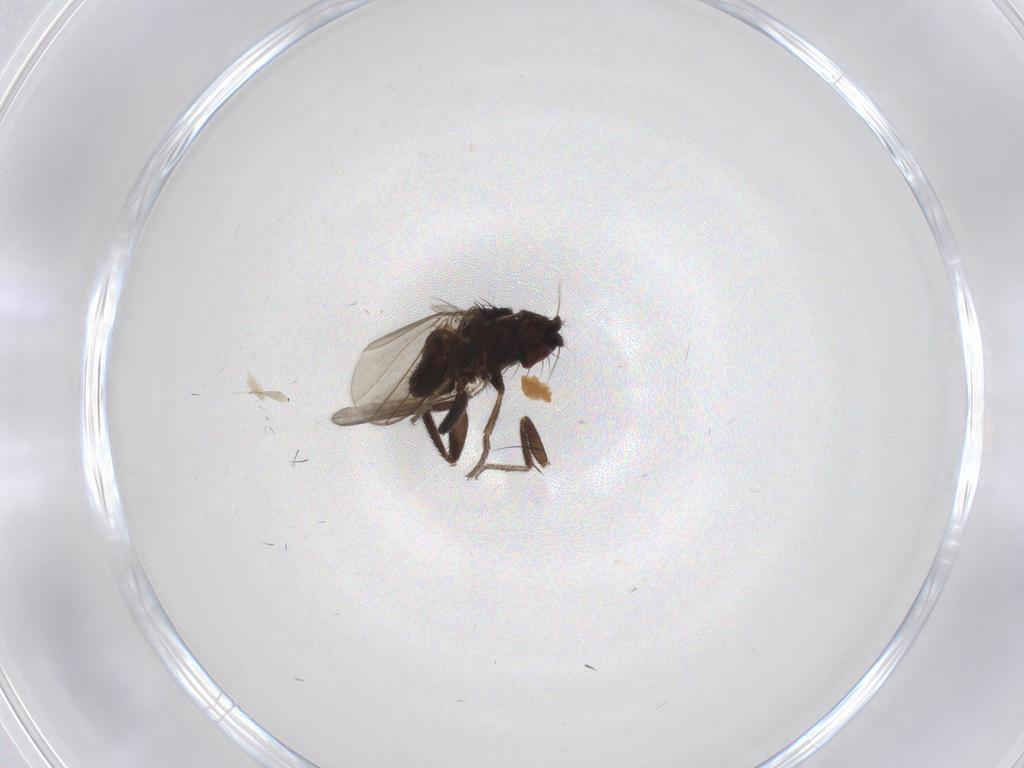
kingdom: Animalia
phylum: Arthropoda
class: Insecta
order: Diptera
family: Milichiidae
